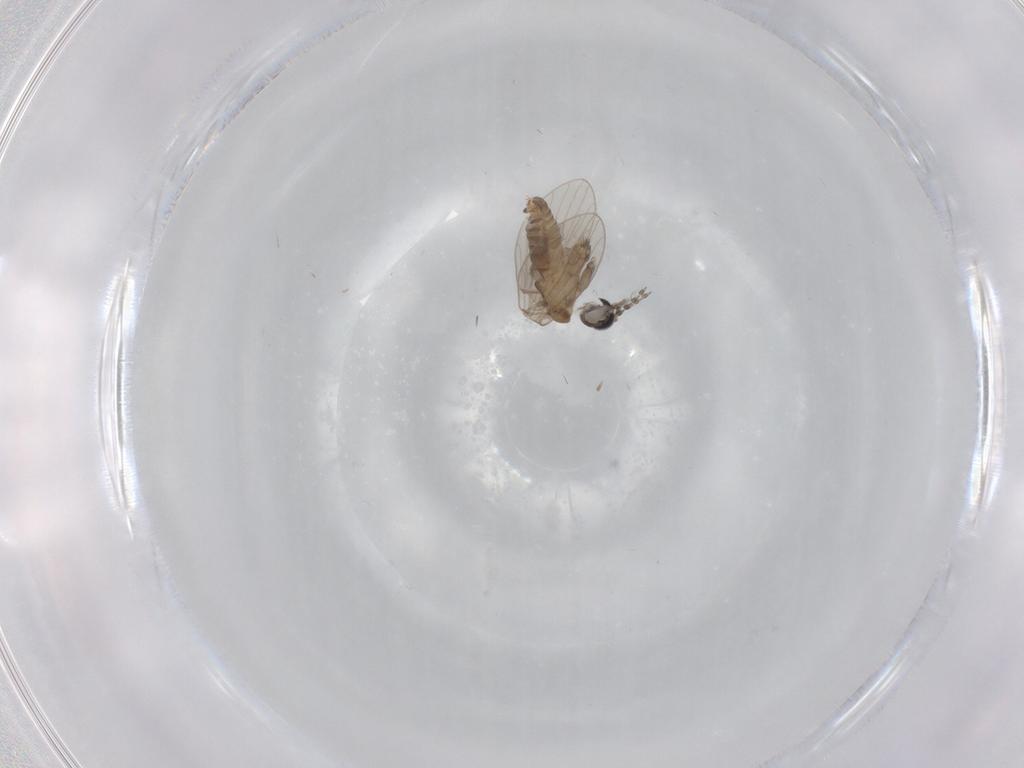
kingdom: Animalia
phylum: Arthropoda
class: Insecta
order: Diptera
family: Psychodidae
